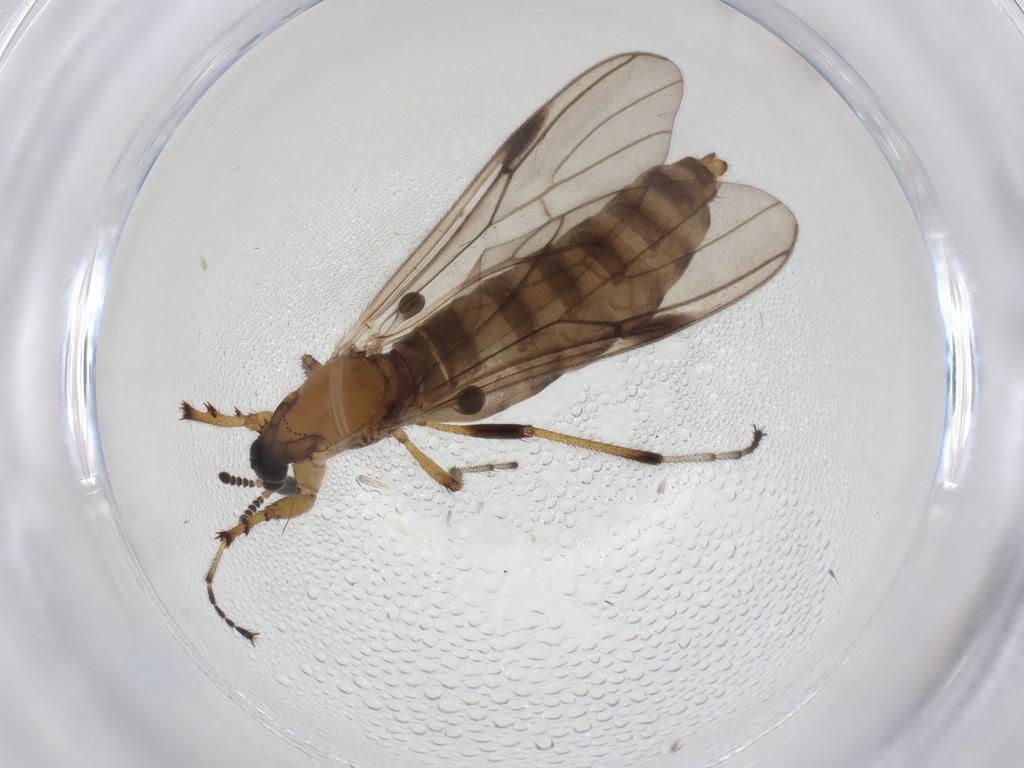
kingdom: Animalia
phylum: Arthropoda
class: Insecta
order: Diptera
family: Bibionidae
